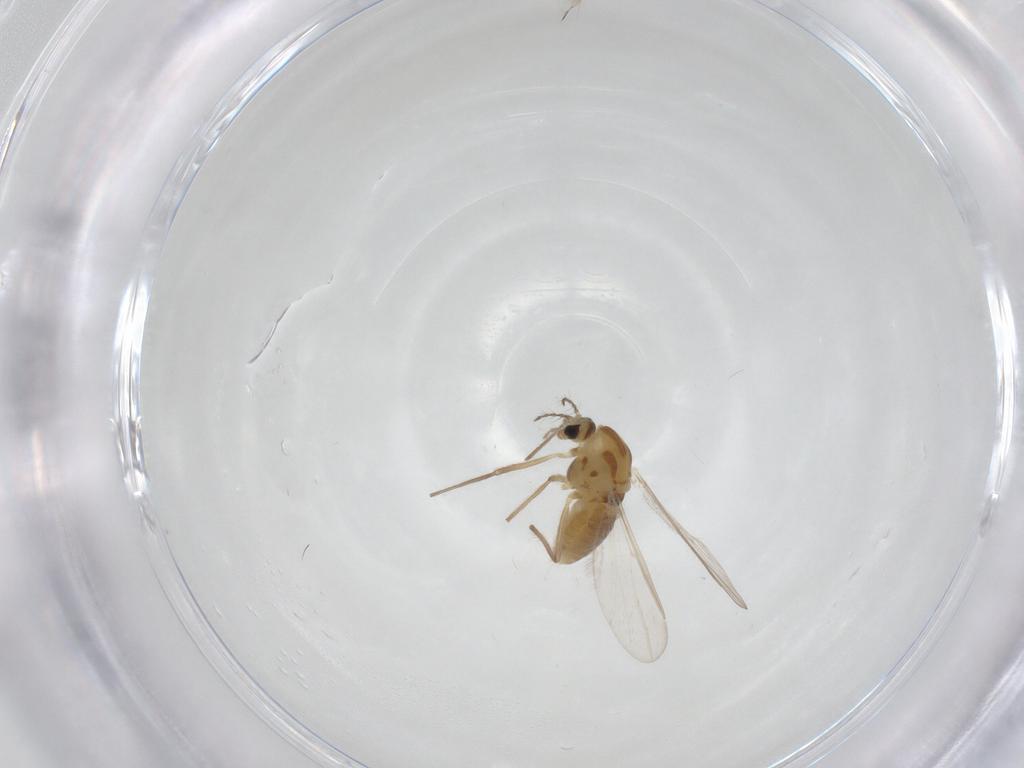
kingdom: Animalia
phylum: Arthropoda
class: Insecta
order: Diptera
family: Chironomidae
